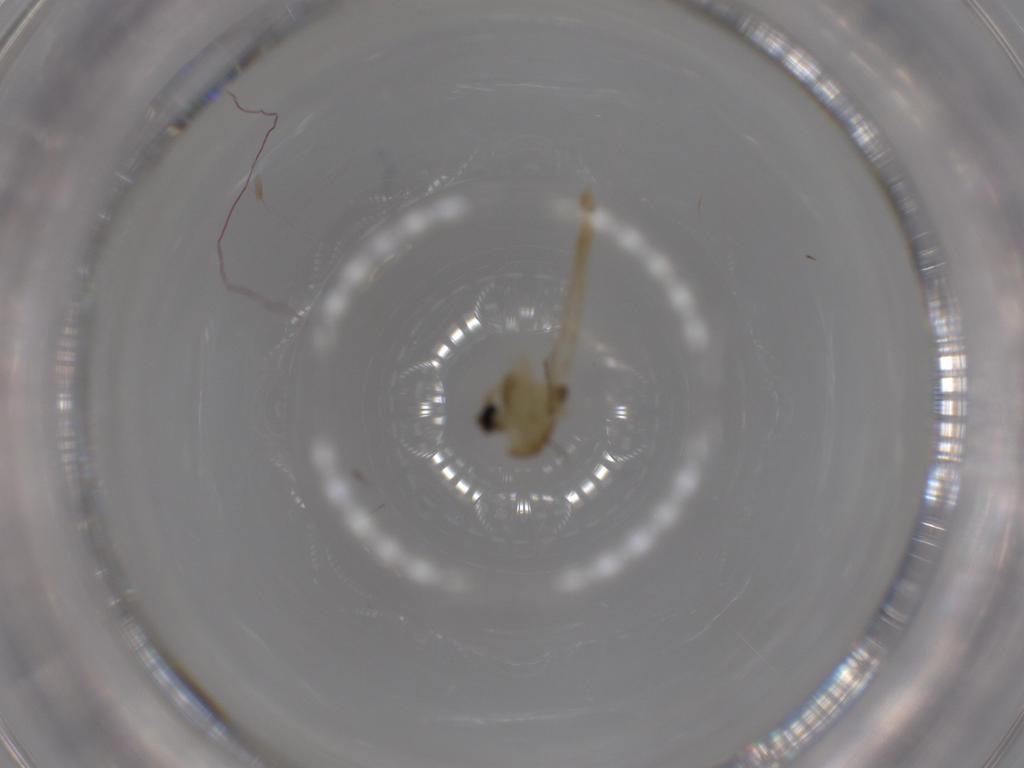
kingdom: Animalia
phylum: Arthropoda
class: Insecta
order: Diptera
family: Chironomidae
